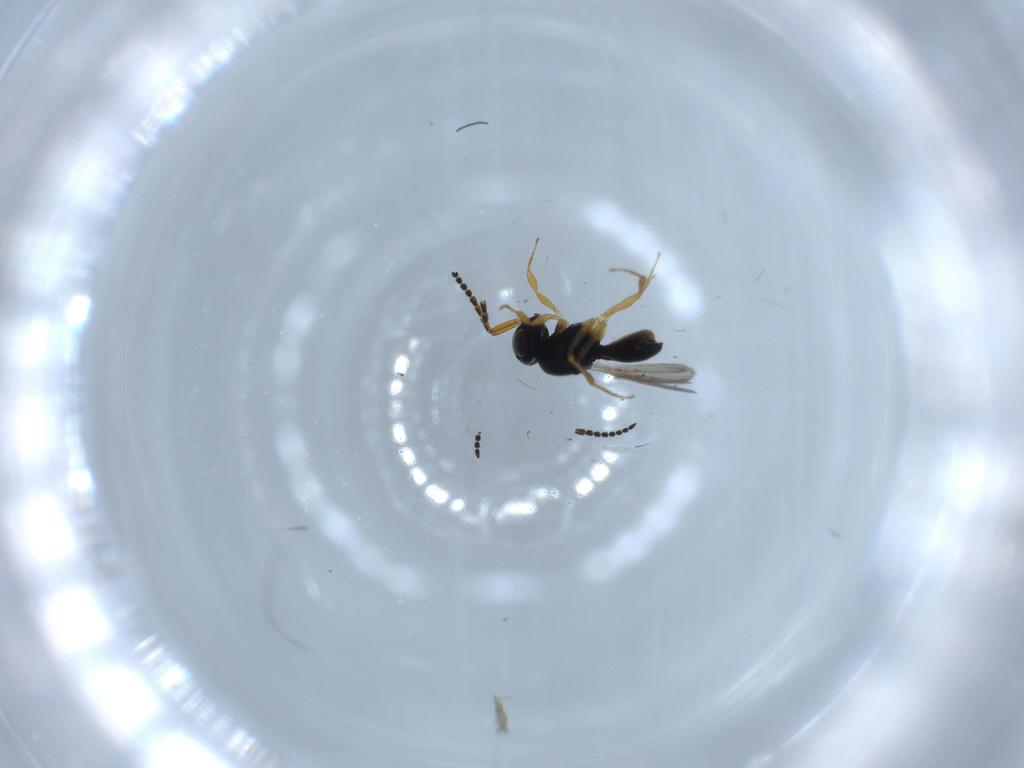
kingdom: Animalia
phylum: Arthropoda
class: Insecta
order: Hymenoptera
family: Scelionidae
